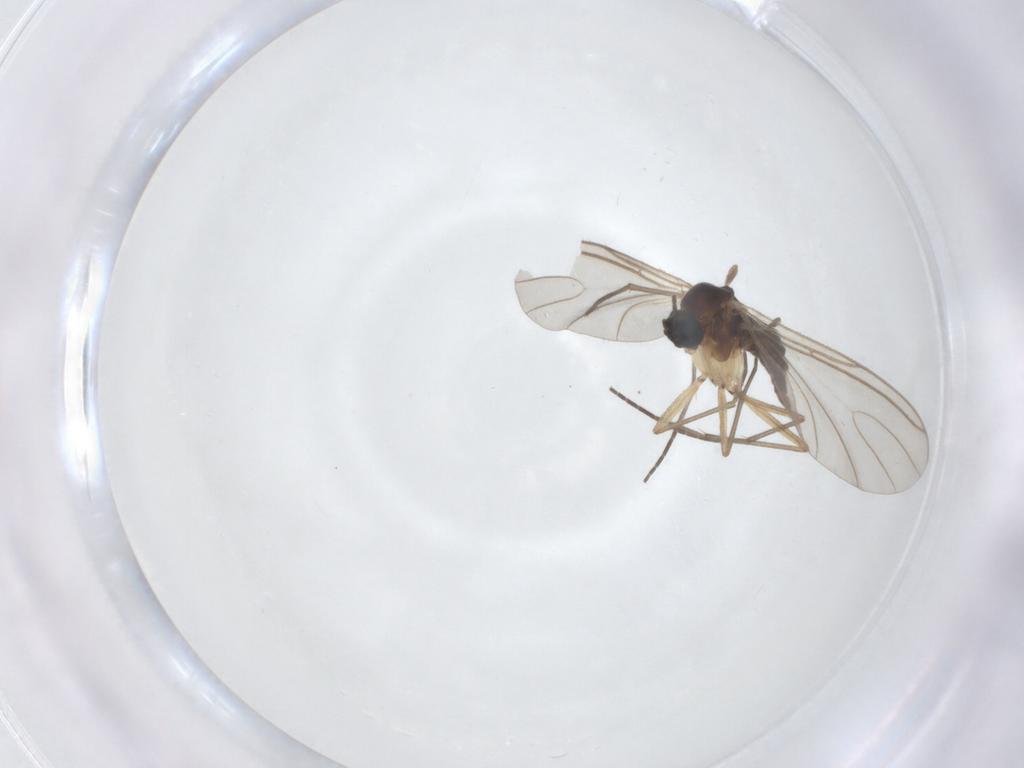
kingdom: Animalia
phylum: Arthropoda
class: Insecta
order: Diptera
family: Sciaridae
